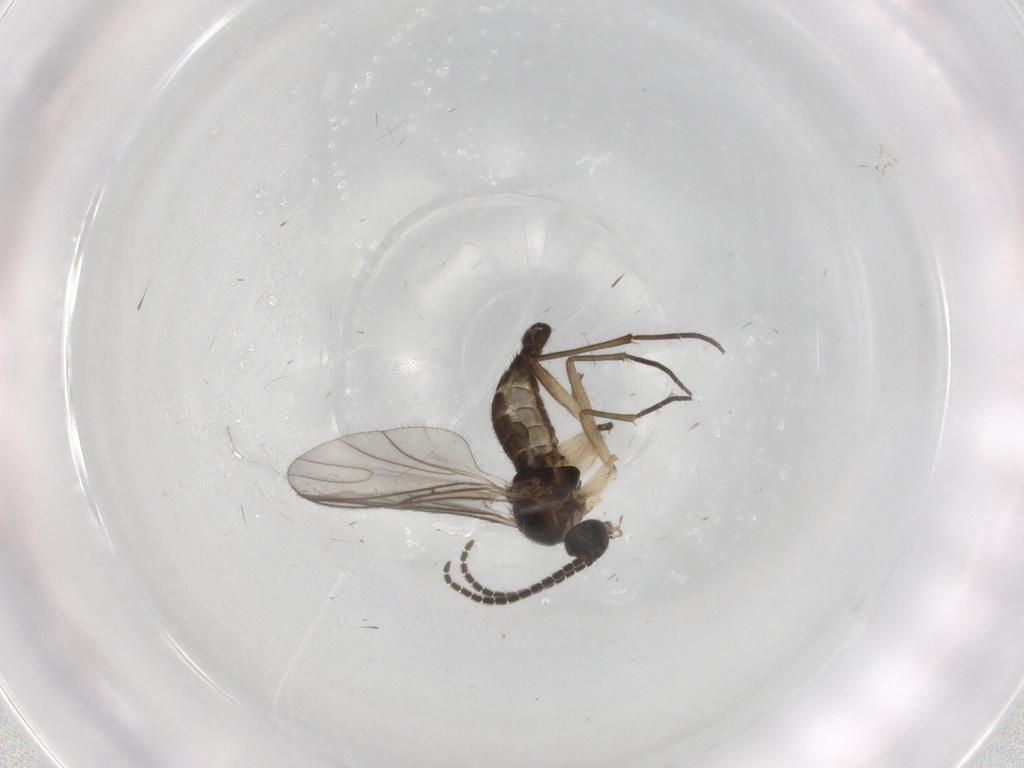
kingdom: Animalia
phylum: Arthropoda
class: Insecta
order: Diptera
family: Sciaridae
